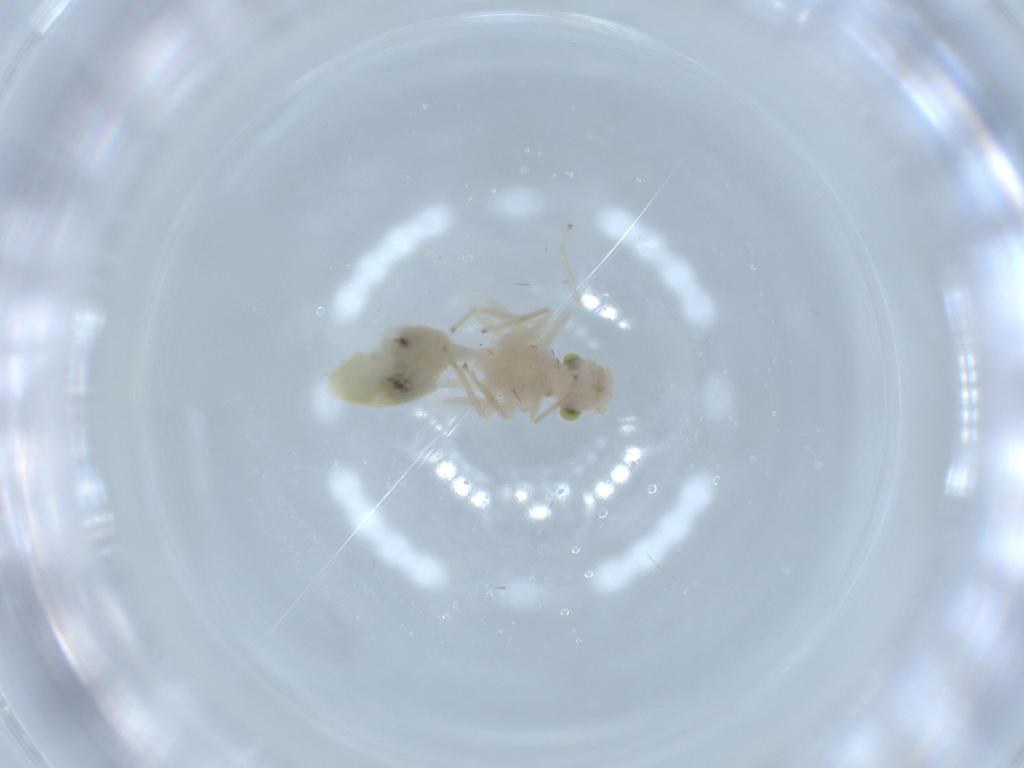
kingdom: Animalia
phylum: Arthropoda
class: Insecta
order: Psocodea
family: Caeciliusidae
